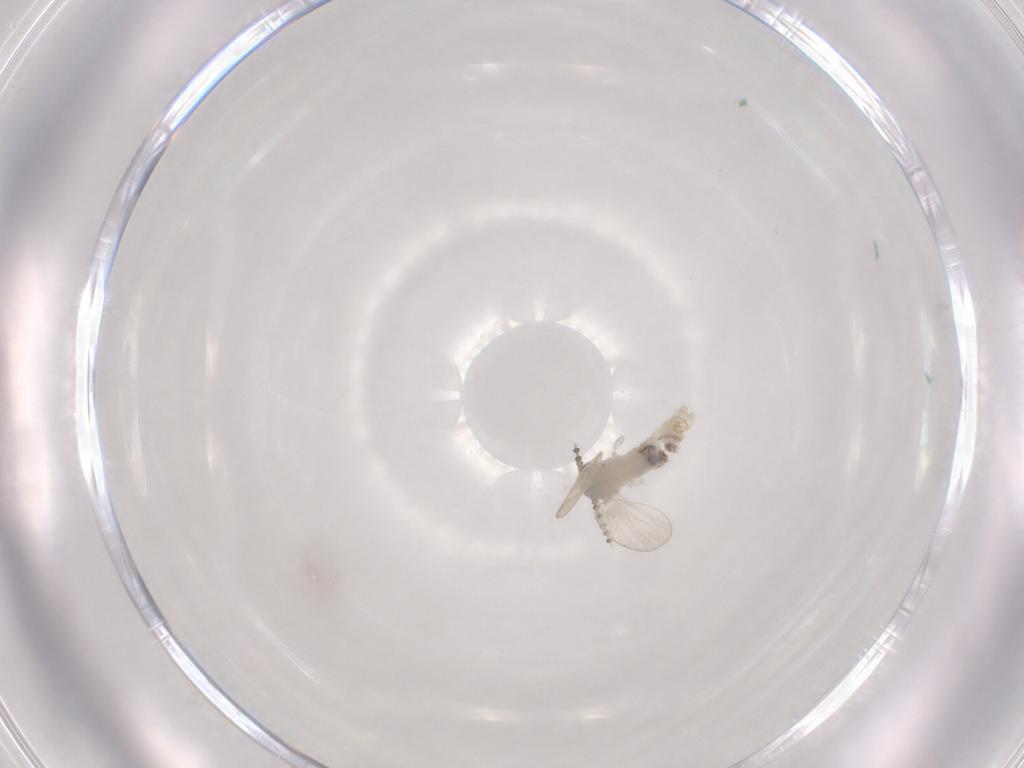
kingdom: Animalia
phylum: Arthropoda
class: Insecta
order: Diptera
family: Psychodidae
